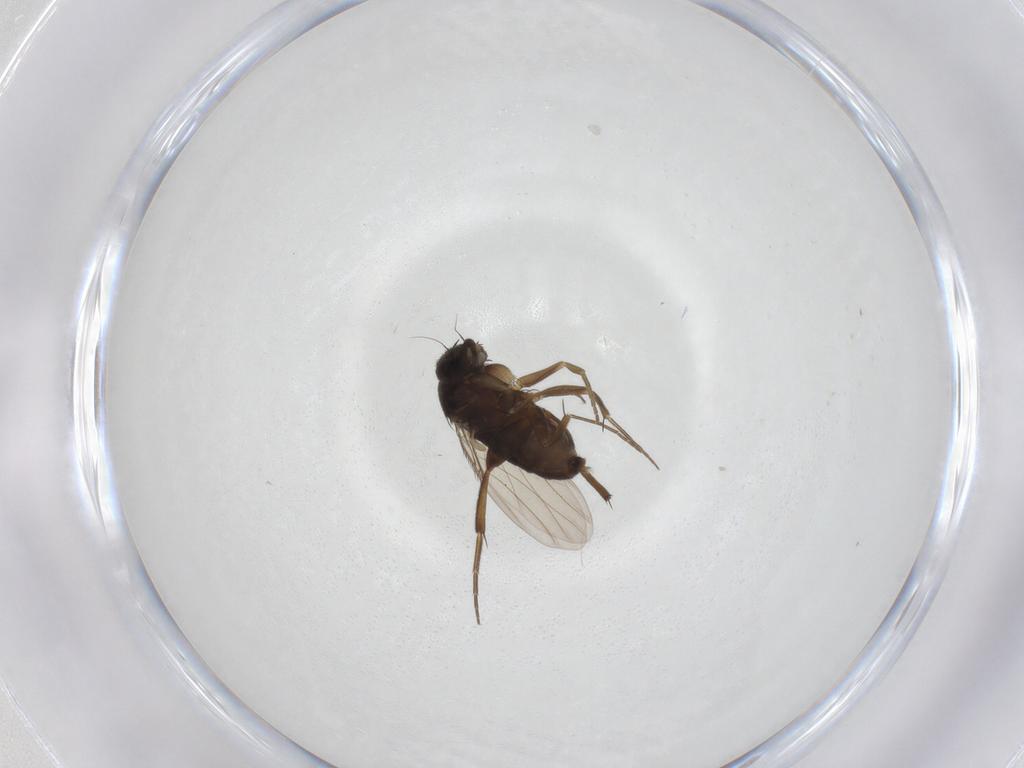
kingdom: Animalia
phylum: Arthropoda
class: Insecta
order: Diptera
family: Phoridae
